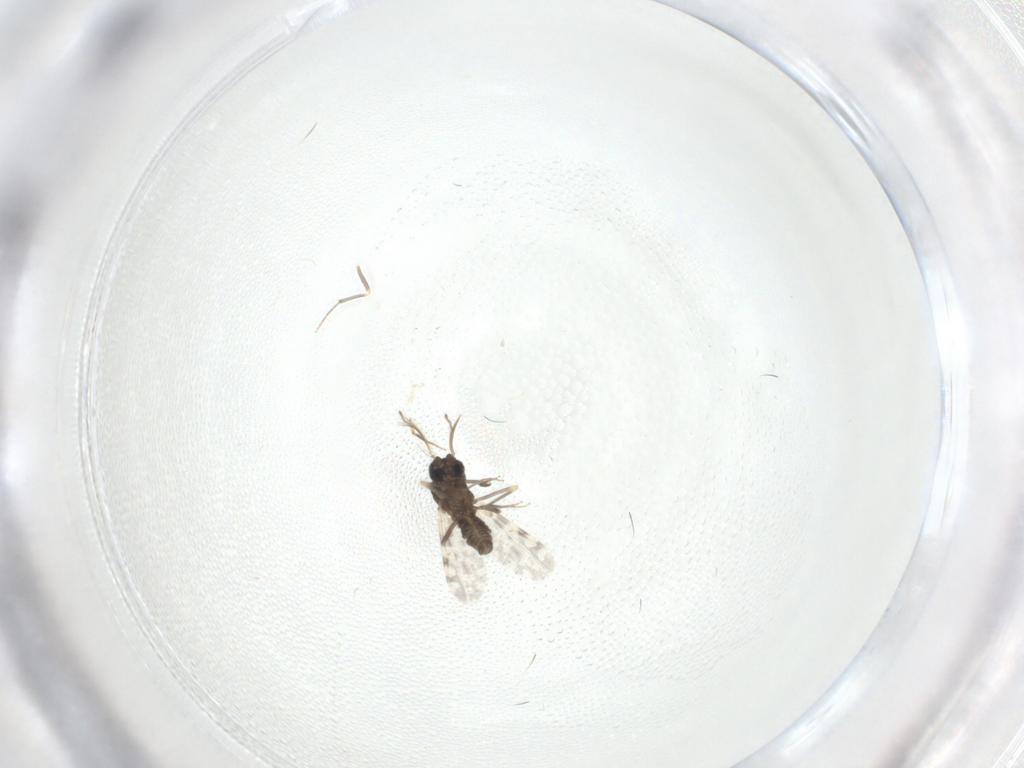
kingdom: Animalia
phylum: Arthropoda
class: Insecta
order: Diptera
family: Ceratopogonidae
